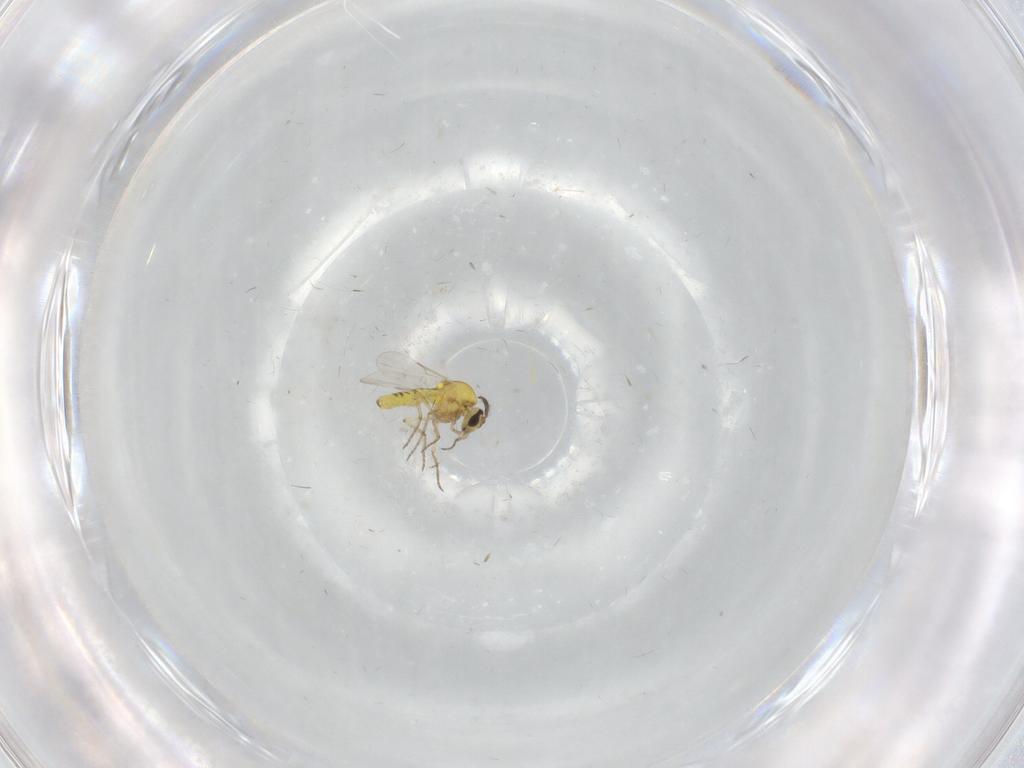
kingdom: Animalia
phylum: Arthropoda
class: Insecta
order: Diptera
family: Ceratopogonidae
